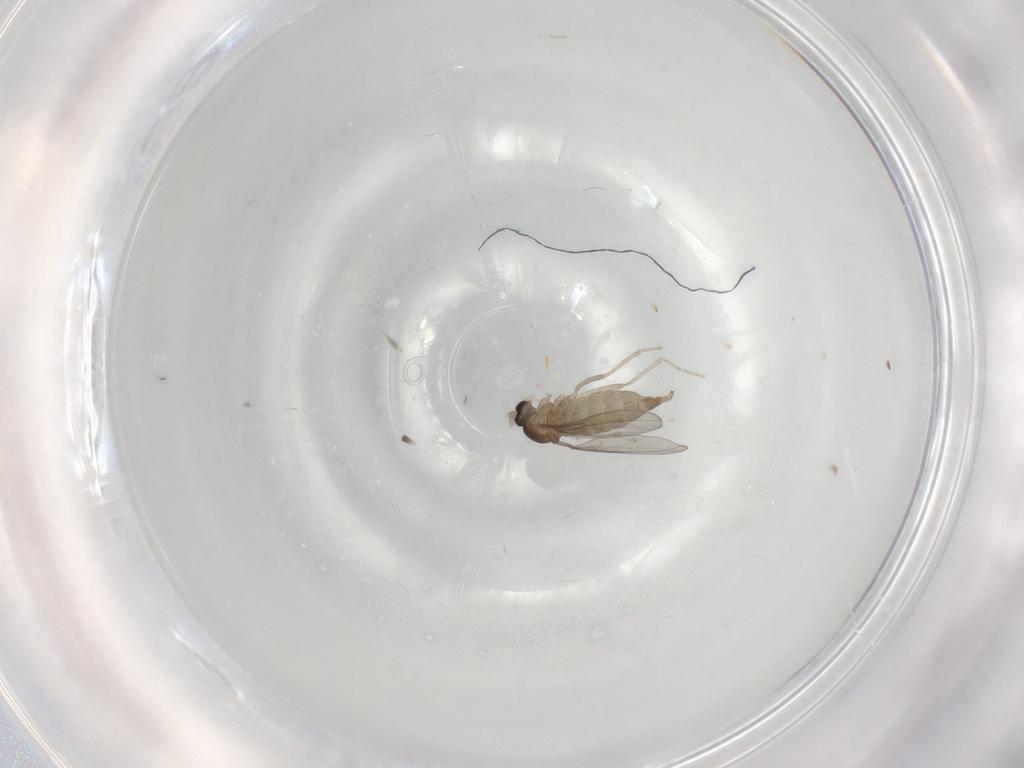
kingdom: Animalia
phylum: Arthropoda
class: Insecta
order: Diptera
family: Cecidomyiidae
